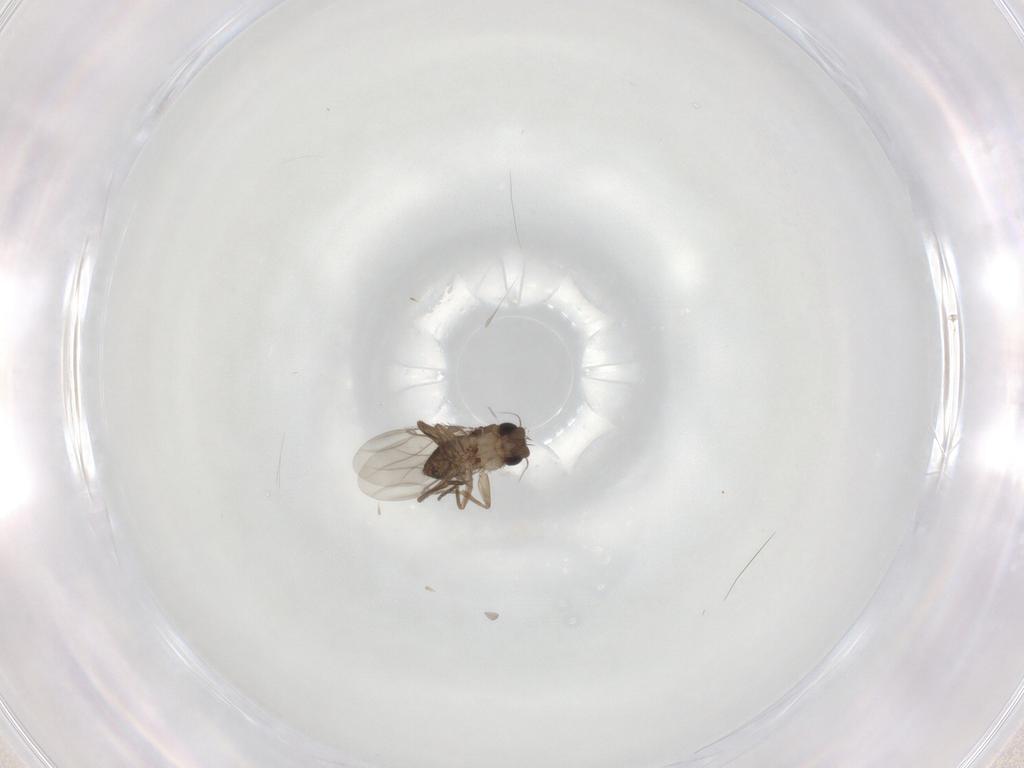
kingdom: Animalia
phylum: Arthropoda
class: Insecta
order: Diptera
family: Phoridae
